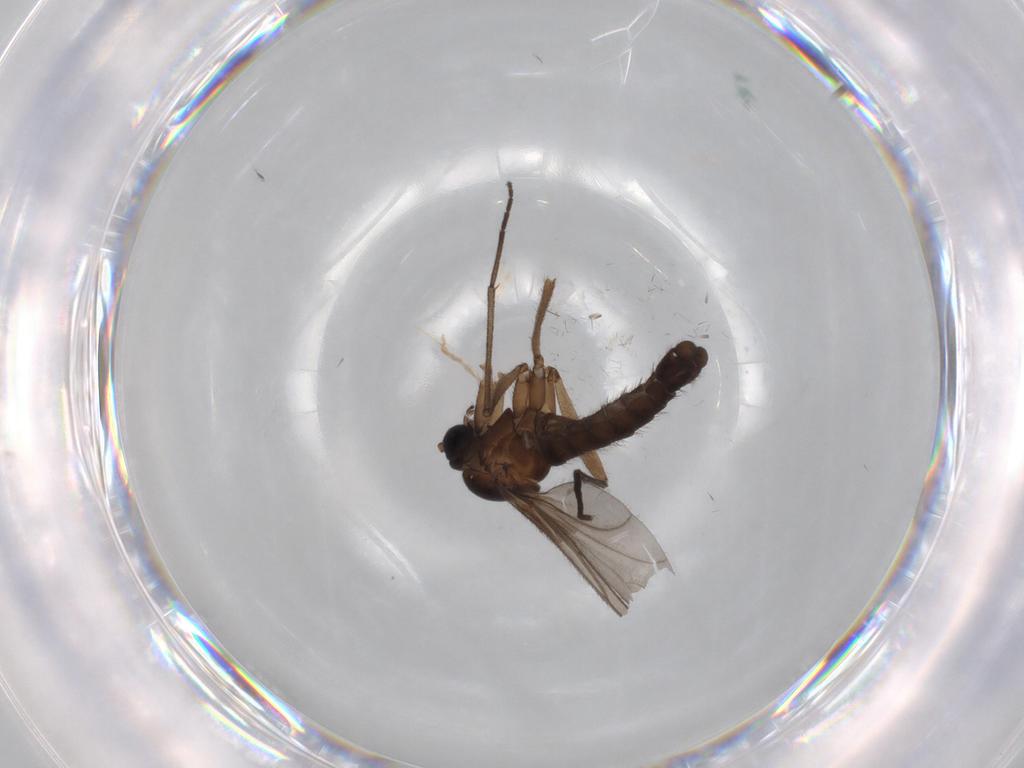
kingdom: Animalia
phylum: Arthropoda
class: Insecta
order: Diptera
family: Sciaridae
